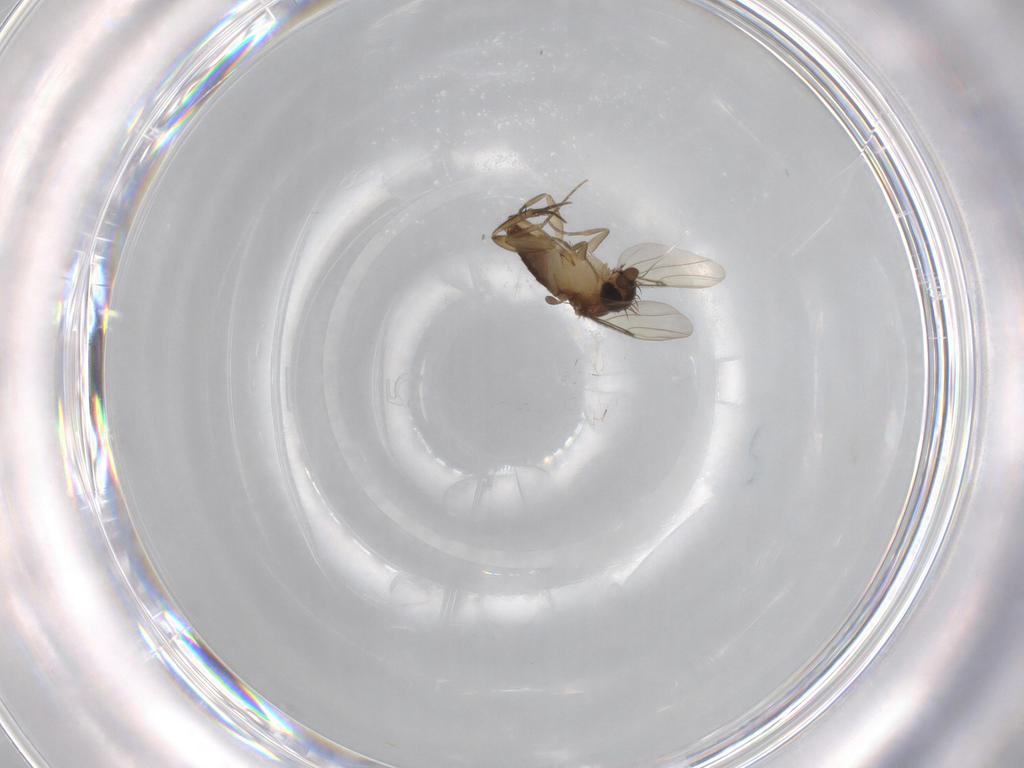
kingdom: Animalia
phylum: Arthropoda
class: Insecta
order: Diptera
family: Phoridae
